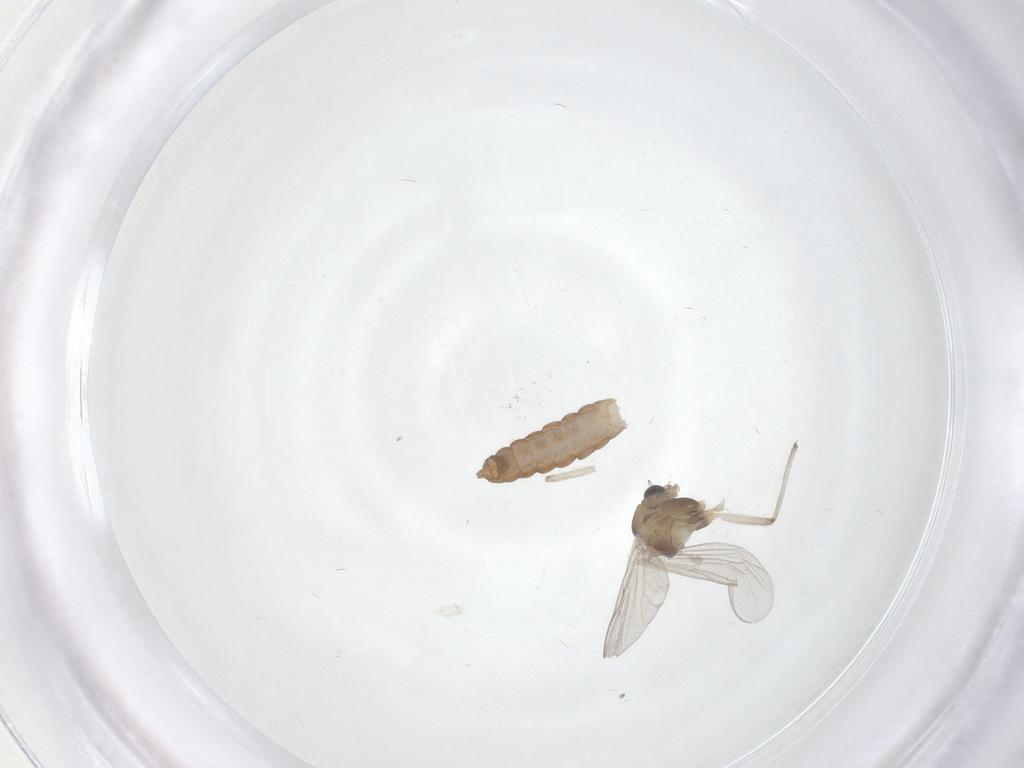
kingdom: Animalia
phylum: Arthropoda
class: Insecta
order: Diptera
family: Chironomidae
